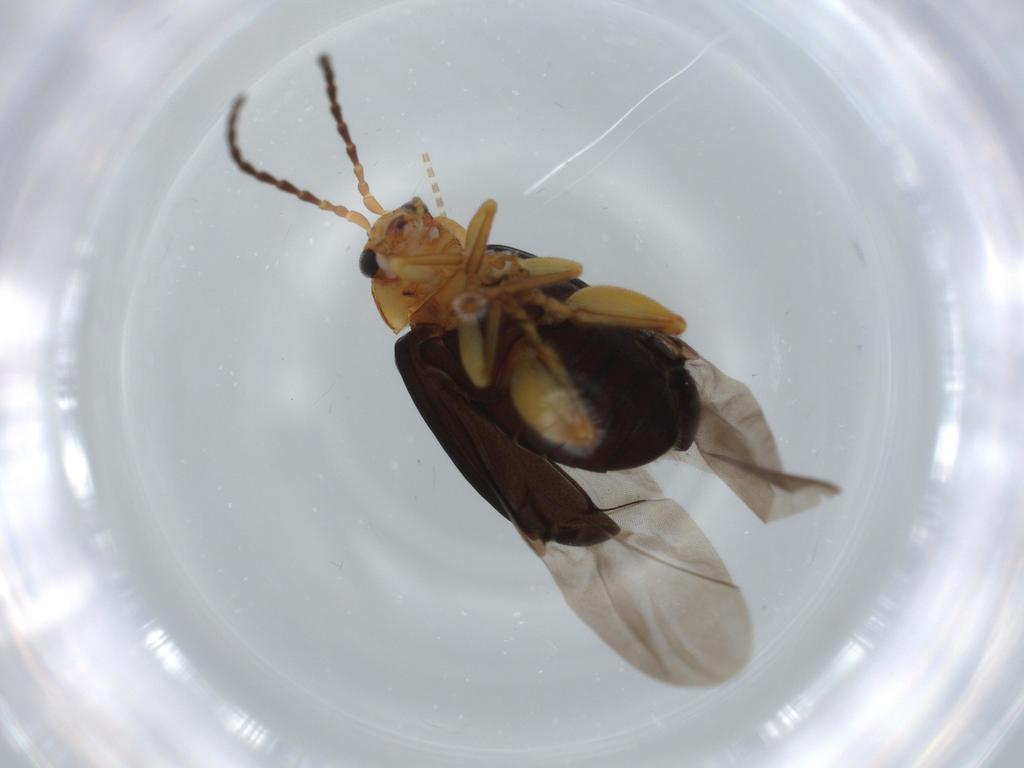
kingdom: Animalia
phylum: Arthropoda
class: Insecta
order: Coleoptera
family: Chrysomelidae
